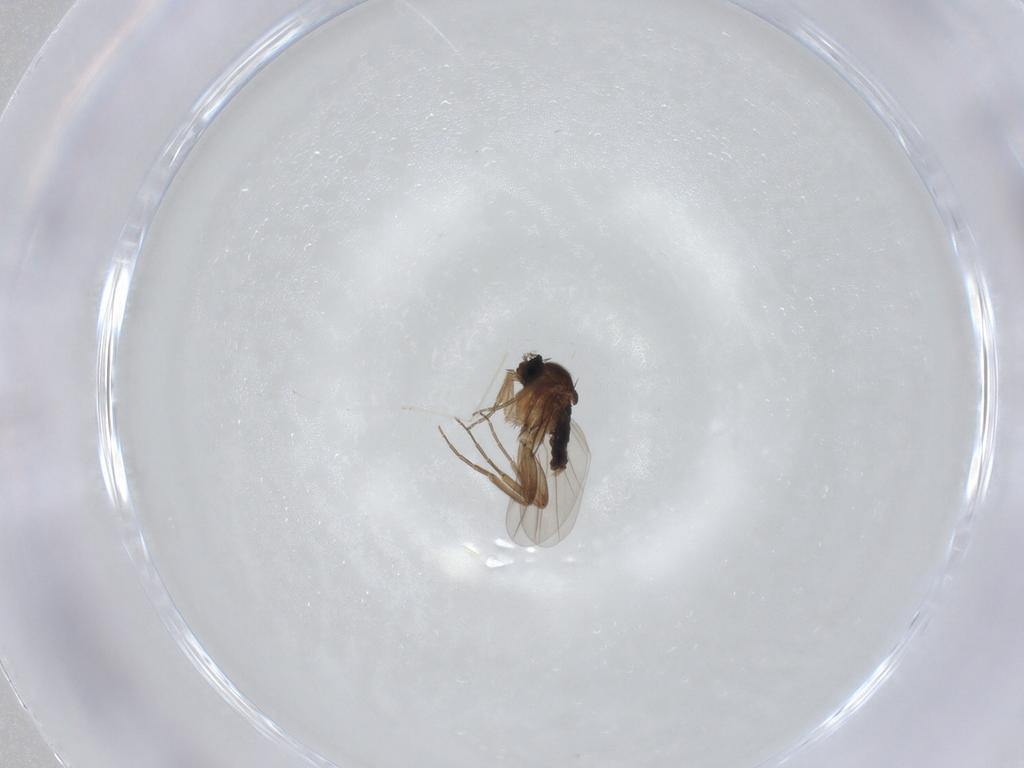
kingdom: Animalia
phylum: Arthropoda
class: Insecta
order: Diptera
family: Phoridae
